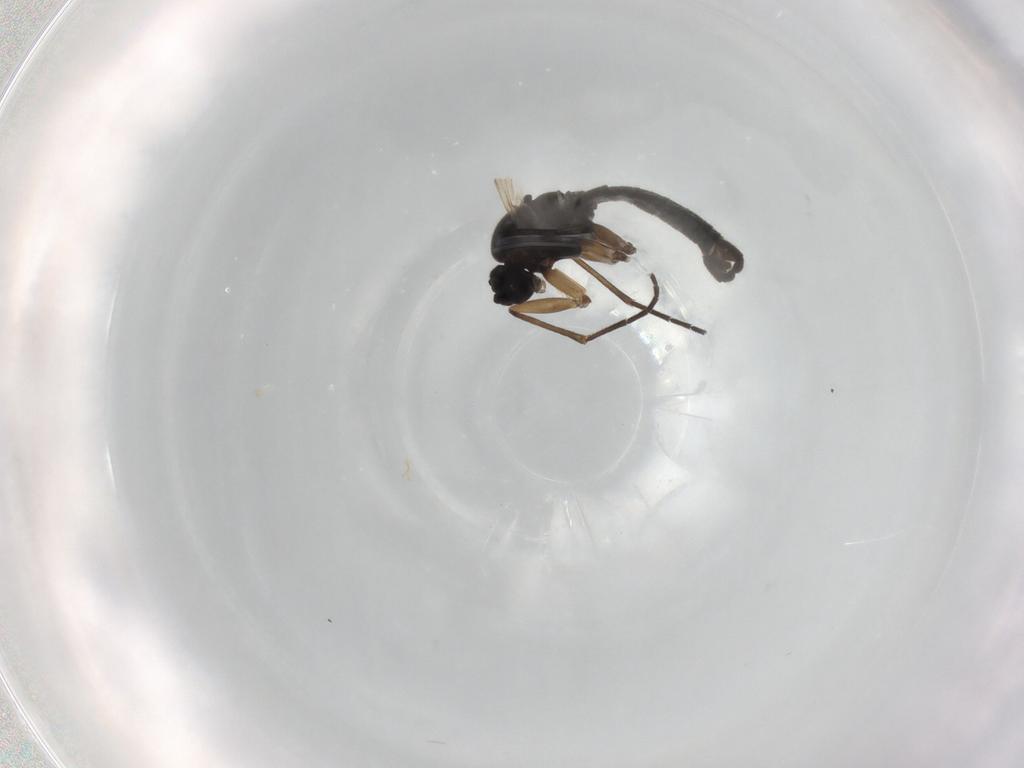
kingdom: Animalia
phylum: Arthropoda
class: Insecta
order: Diptera
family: Sciaridae
